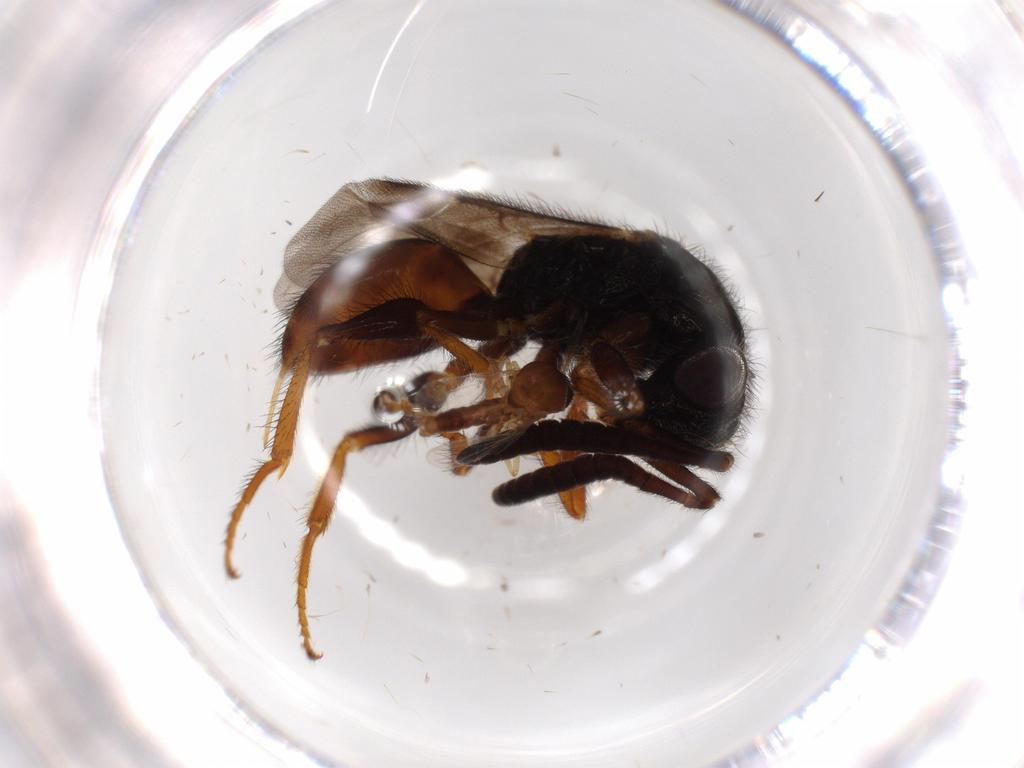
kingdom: Animalia
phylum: Arthropoda
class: Insecta
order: Hymenoptera
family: Chrysididae
